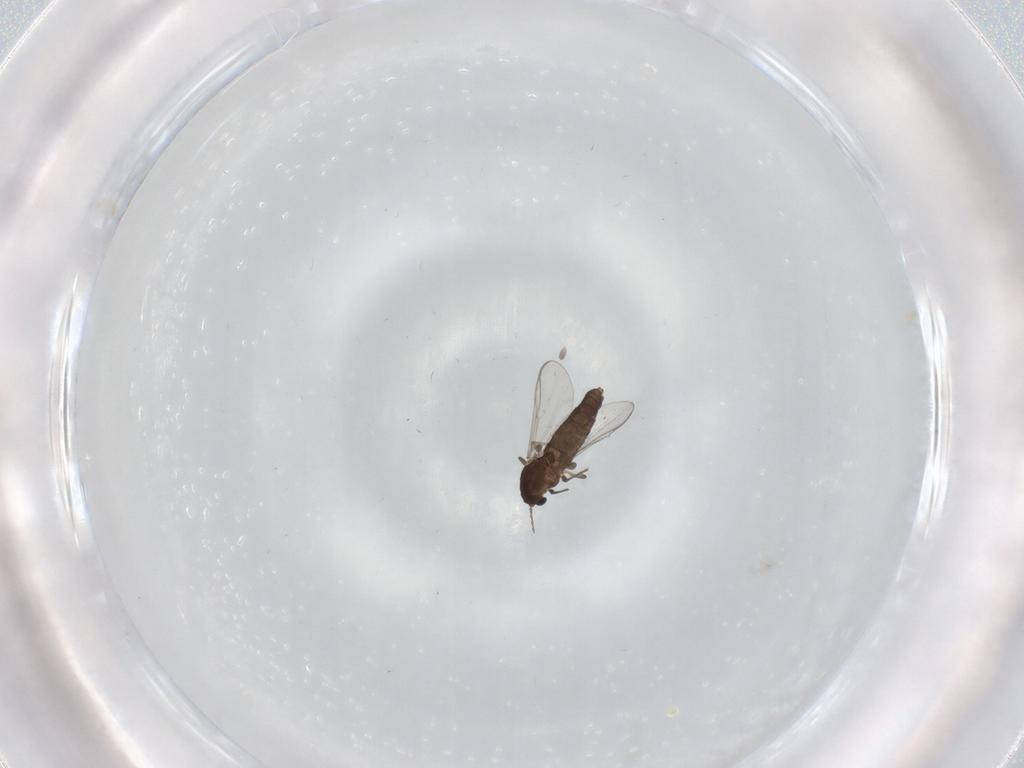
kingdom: Animalia
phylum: Arthropoda
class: Insecta
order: Diptera
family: Chironomidae
